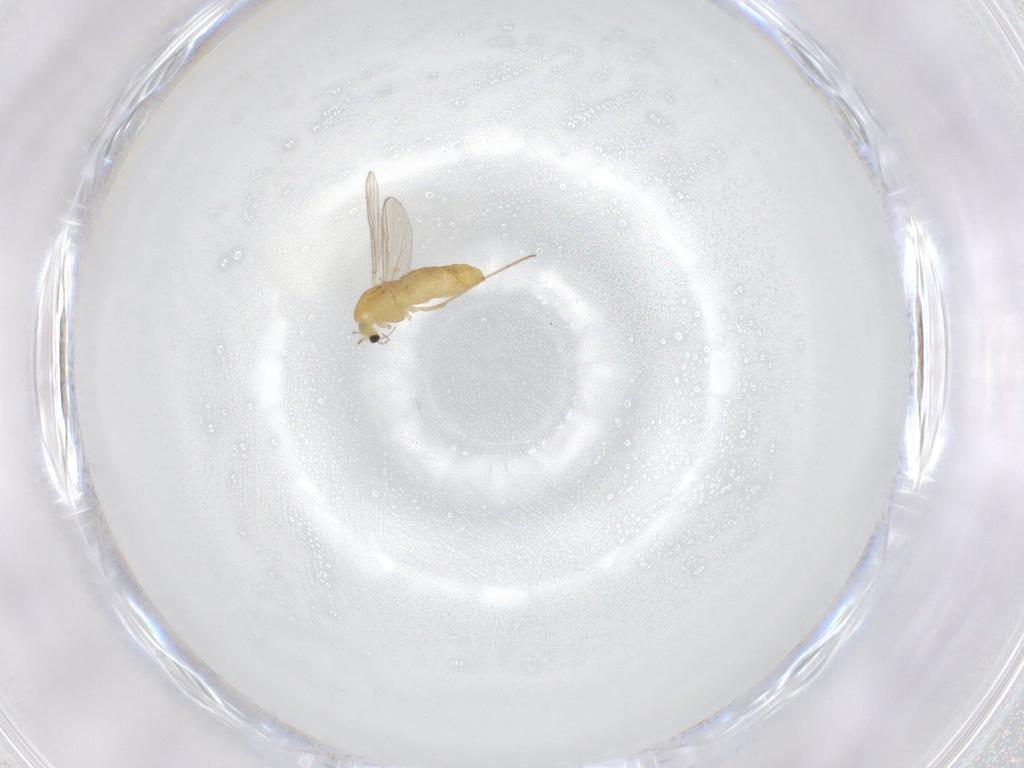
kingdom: Animalia
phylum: Arthropoda
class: Insecta
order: Diptera
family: Chironomidae
